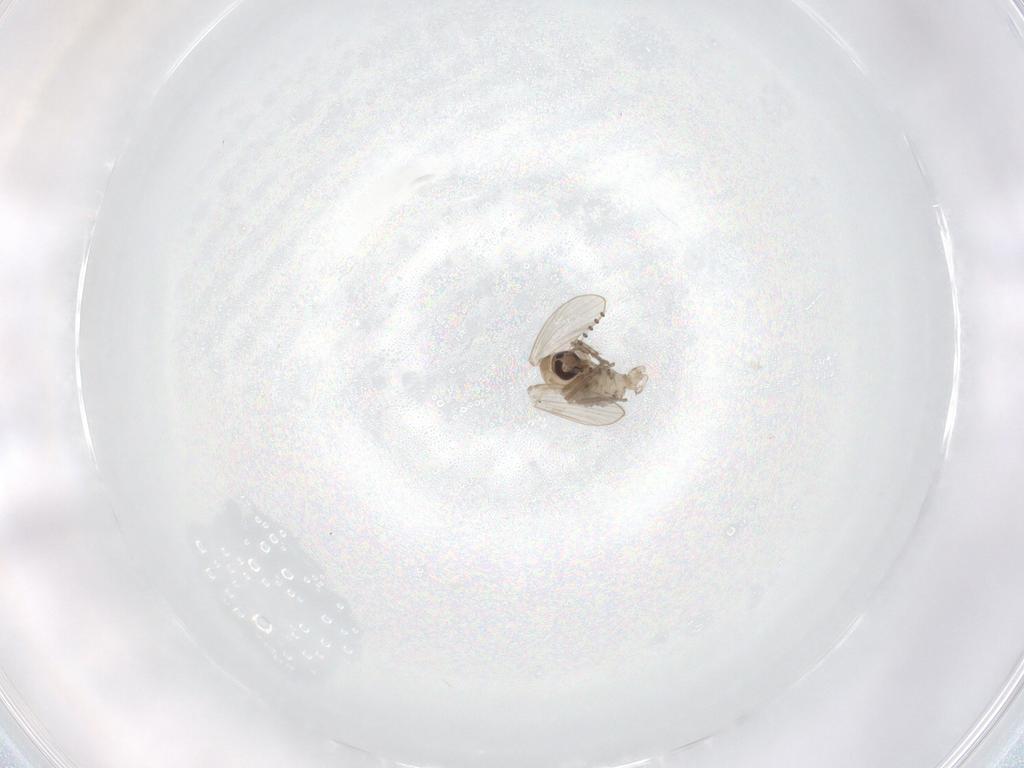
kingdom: Animalia
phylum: Arthropoda
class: Insecta
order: Diptera
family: Psychodidae
